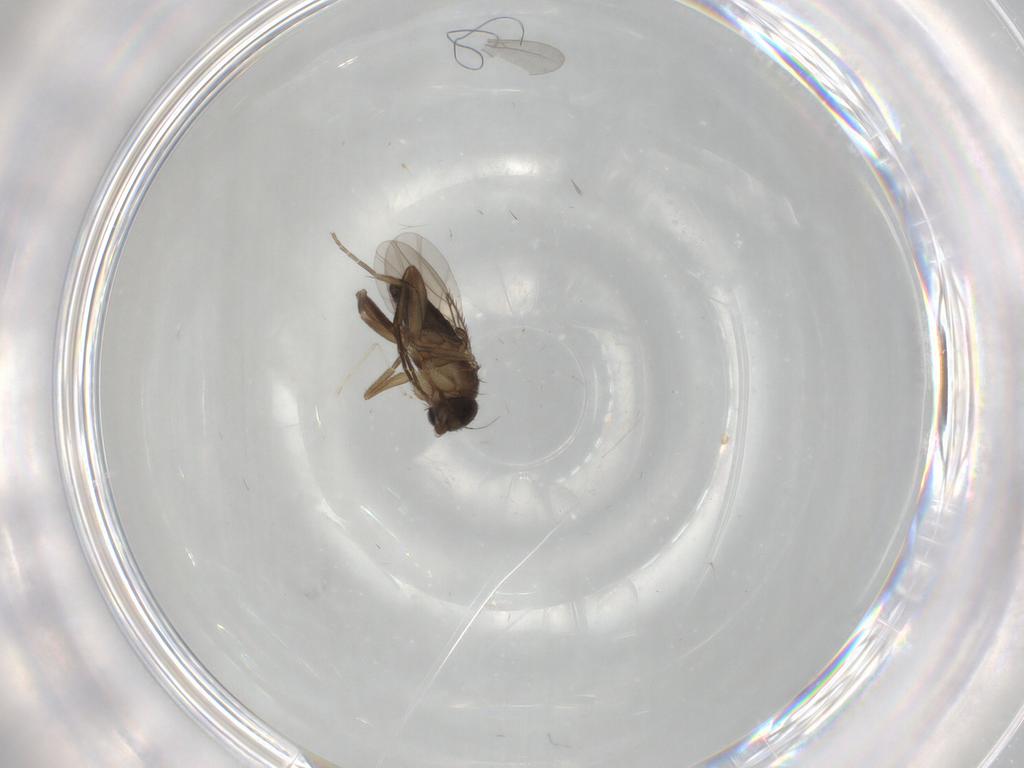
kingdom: Animalia
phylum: Arthropoda
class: Insecta
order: Diptera
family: Phoridae
